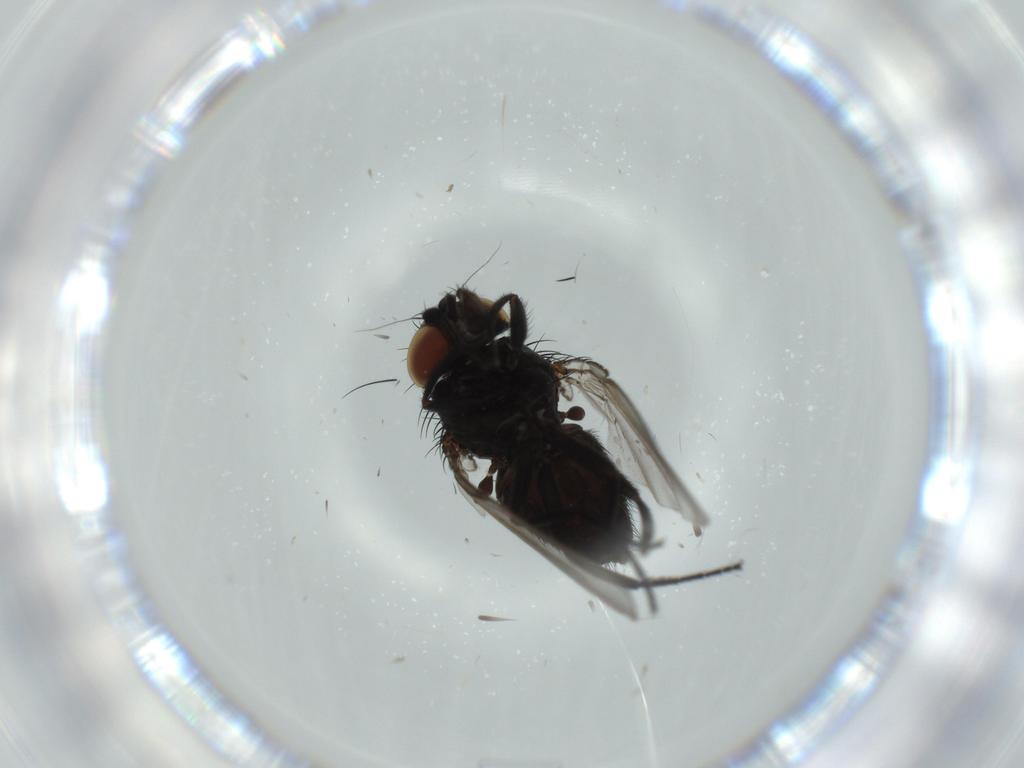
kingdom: Animalia
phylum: Arthropoda
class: Insecta
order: Diptera
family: Milichiidae
